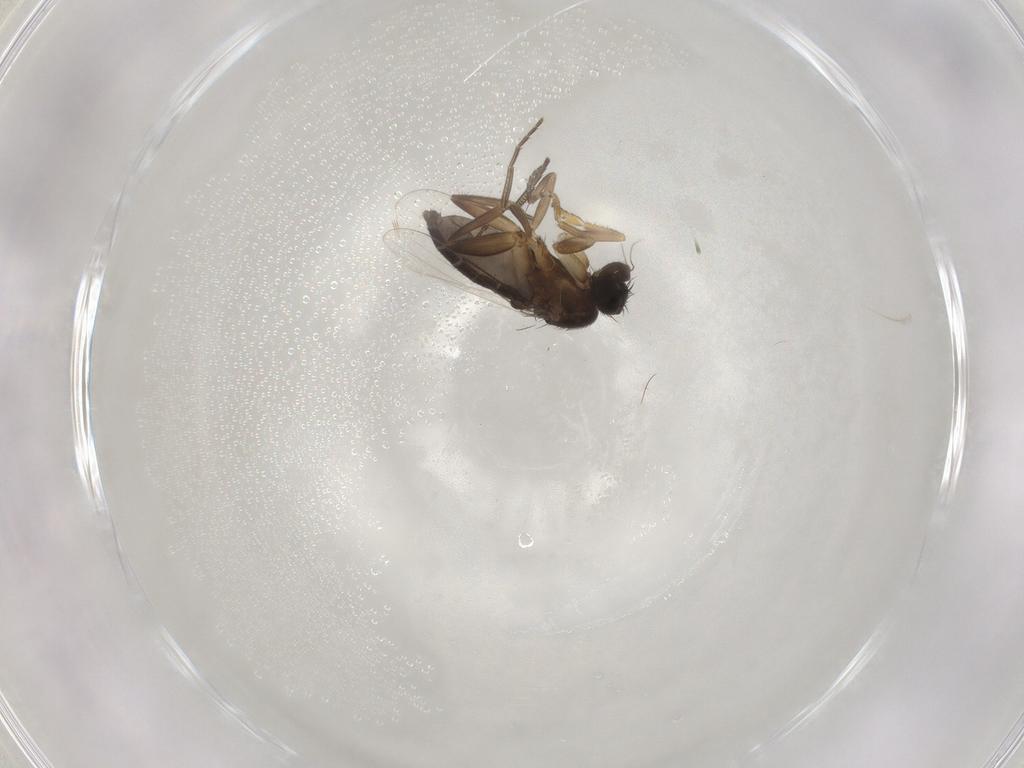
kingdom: Animalia
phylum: Arthropoda
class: Insecta
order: Diptera
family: Phoridae
